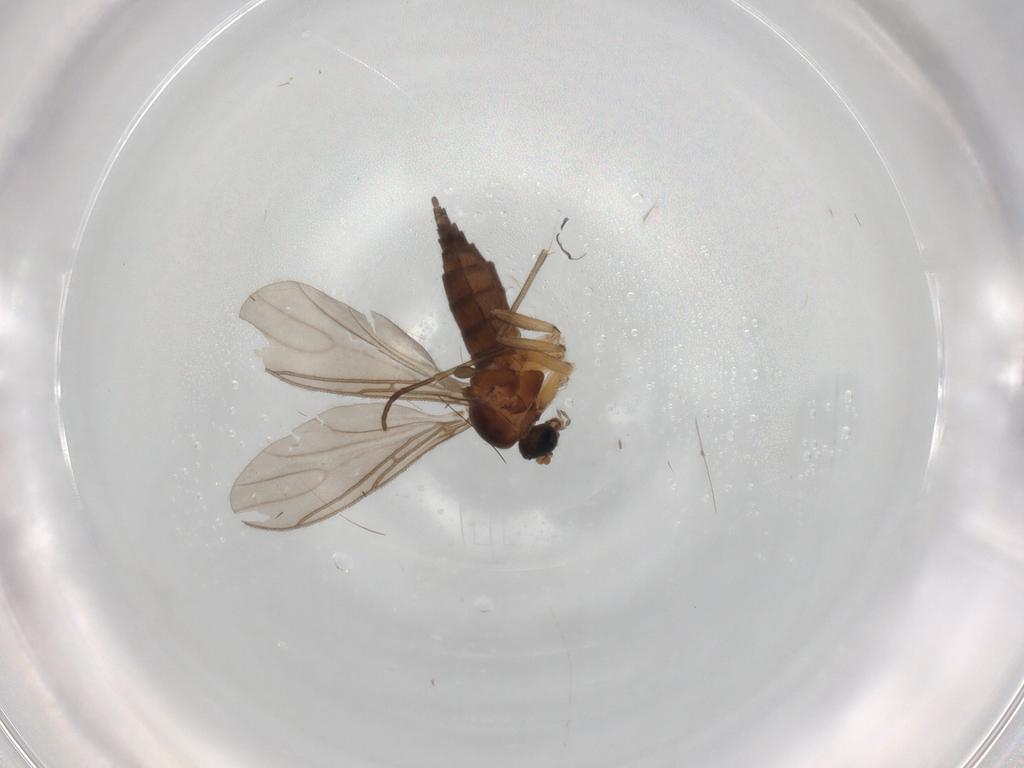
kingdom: Animalia
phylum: Arthropoda
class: Insecta
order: Diptera
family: Sciaridae
